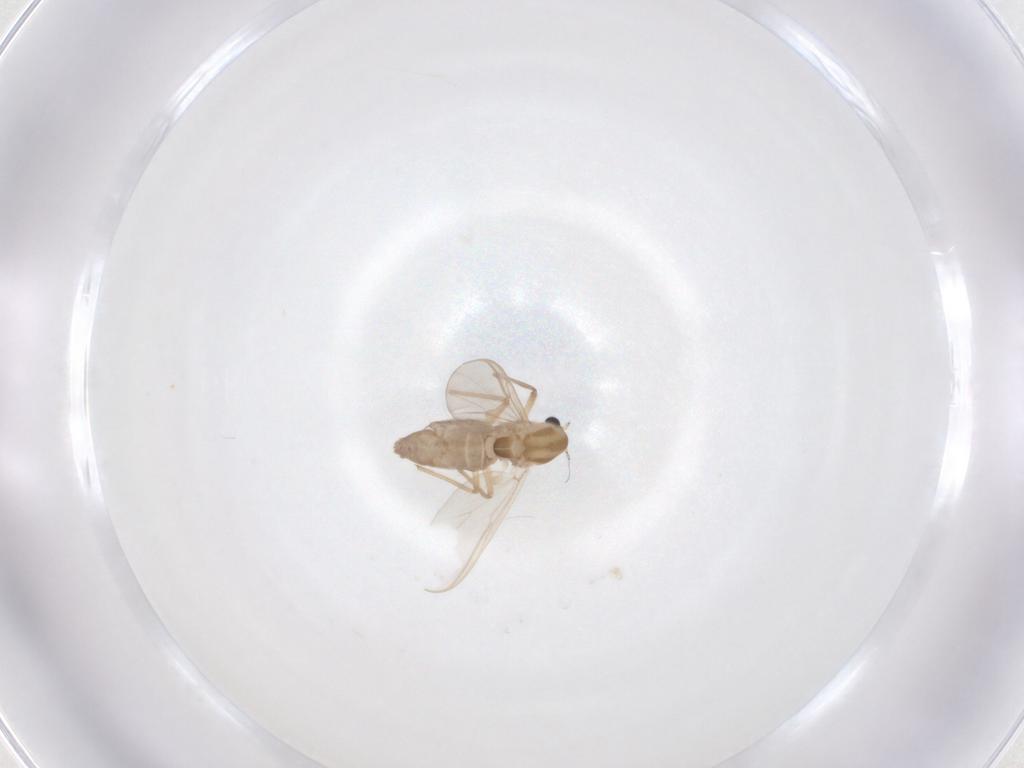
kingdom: Animalia
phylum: Arthropoda
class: Insecta
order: Diptera
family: Chironomidae
